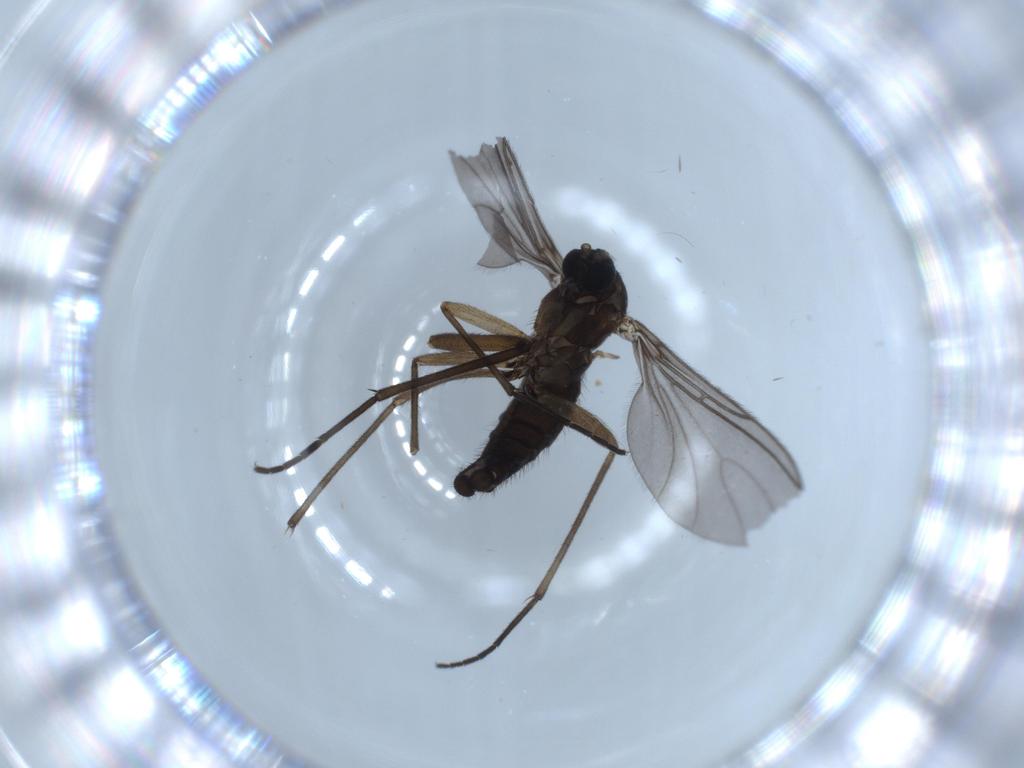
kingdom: Animalia
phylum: Arthropoda
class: Insecta
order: Diptera
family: Sciaridae
